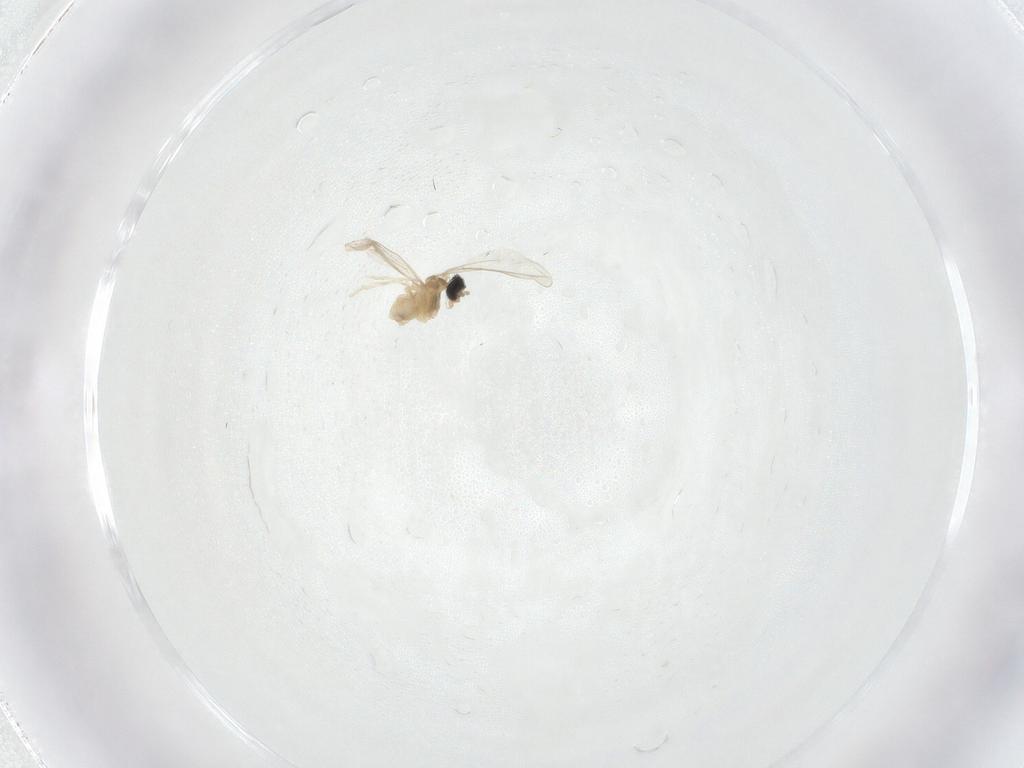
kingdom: Animalia
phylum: Arthropoda
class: Insecta
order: Diptera
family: Cecidomyiidae
